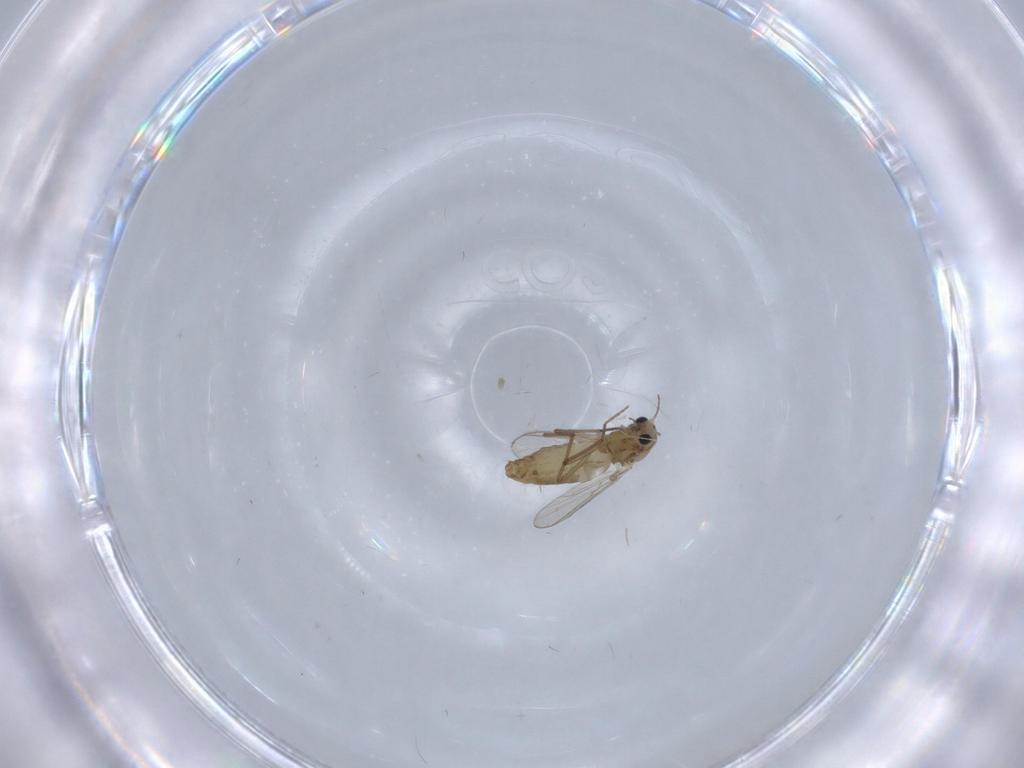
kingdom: Animalia
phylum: Arthropoda
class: Insecta
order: Diptera
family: Chironomidae
